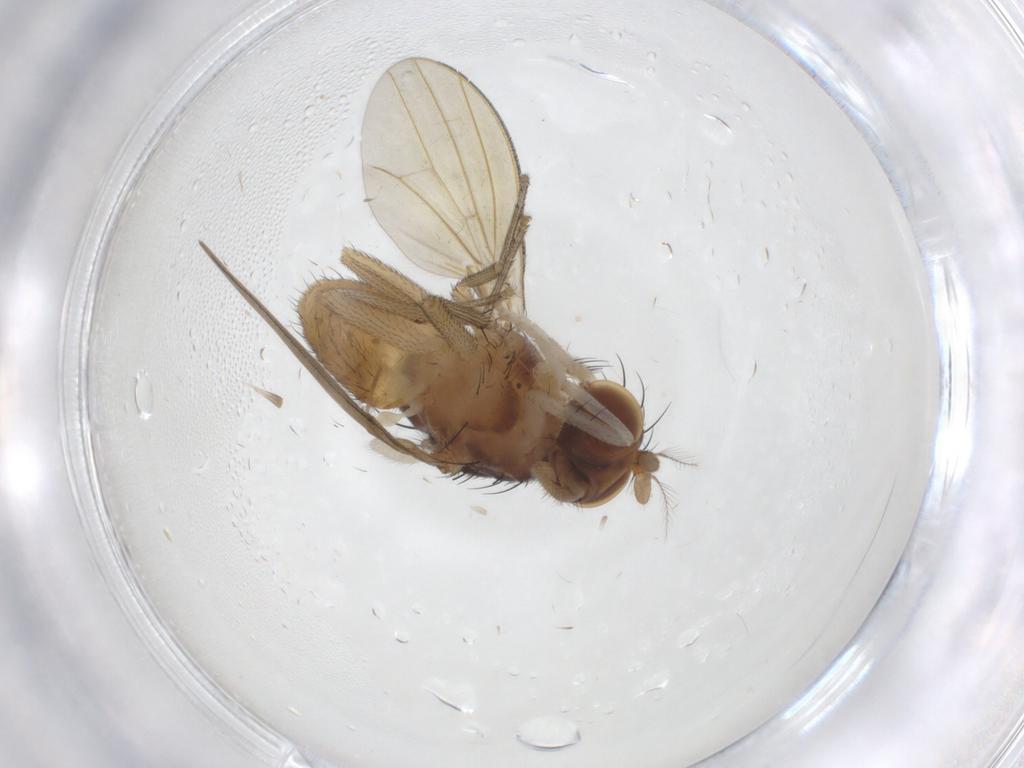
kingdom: Animalia
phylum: Arthropoda
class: Insecta
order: Diptera
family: Lauxaniidae
